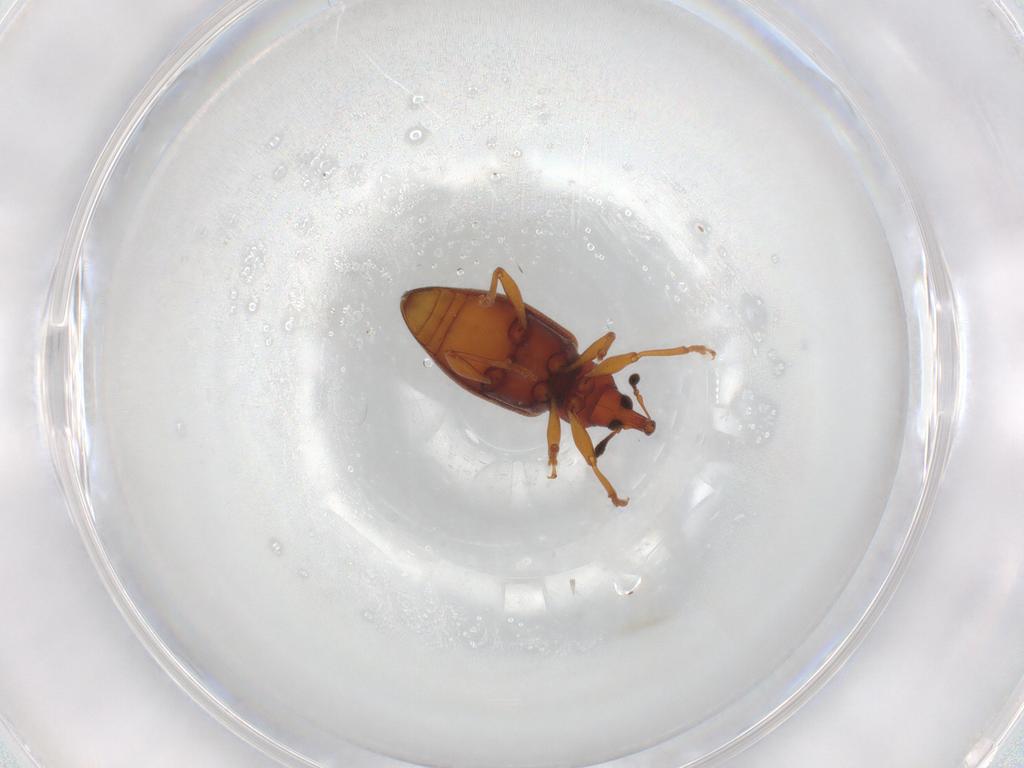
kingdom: Animalia
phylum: Arthropoda
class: Insecta
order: Coleoptera
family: Curculionidae
